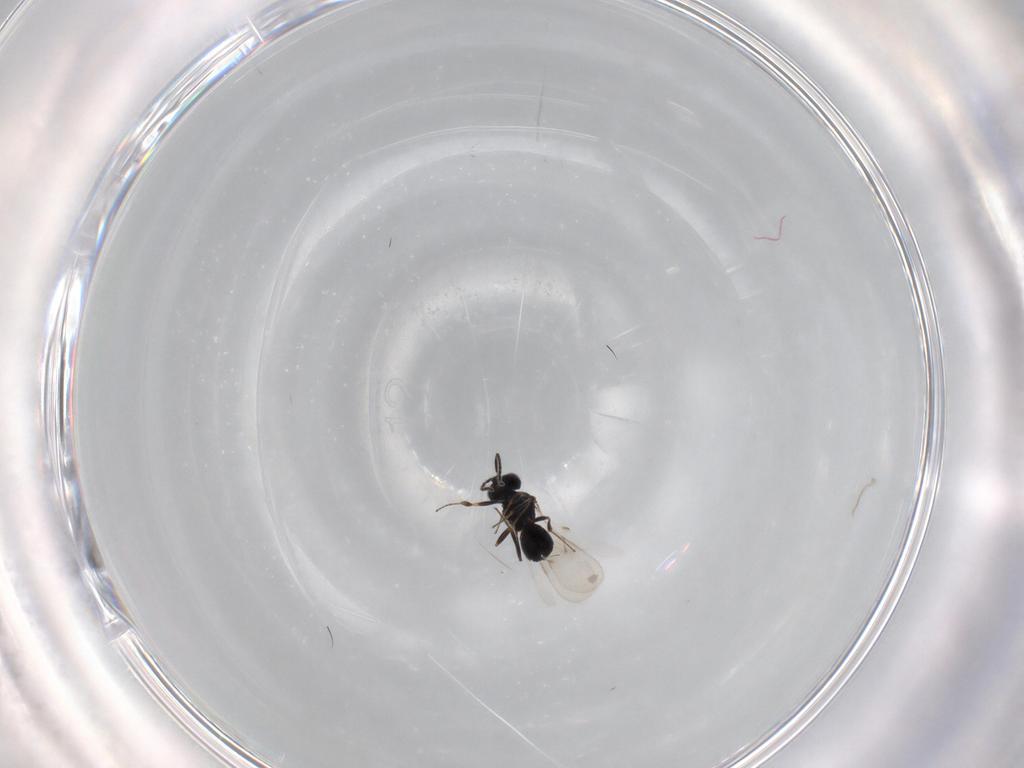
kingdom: Animalia
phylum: Arthropoda
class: Insecta
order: Hymenoptera
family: Scelionidae
